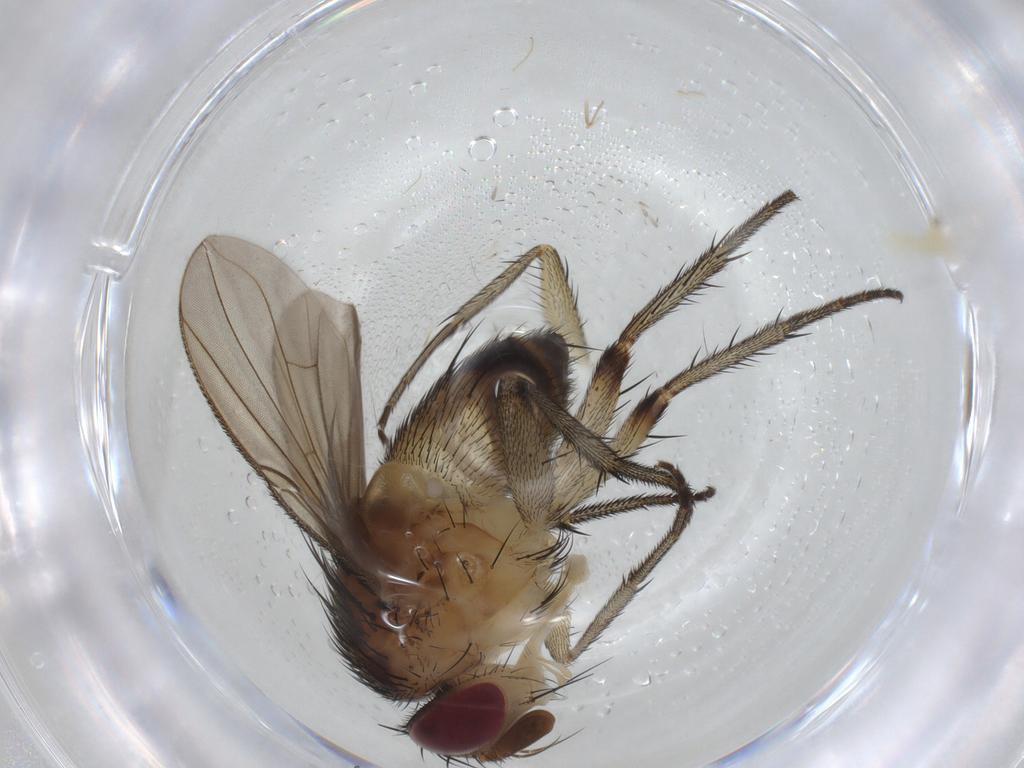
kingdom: Animalia
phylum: Arthropoda
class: Insecta
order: Diptera
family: Tachinidae
